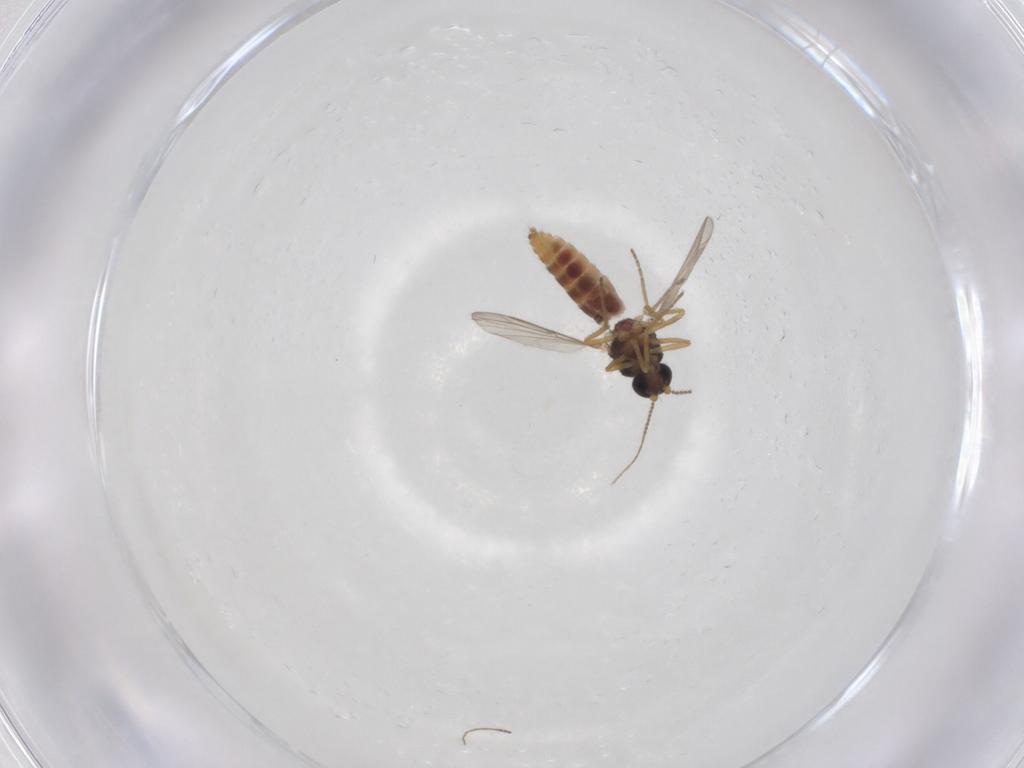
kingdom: Animalia
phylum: Arthropoda
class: Insecta
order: Diptera
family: Ceratopogonidae
